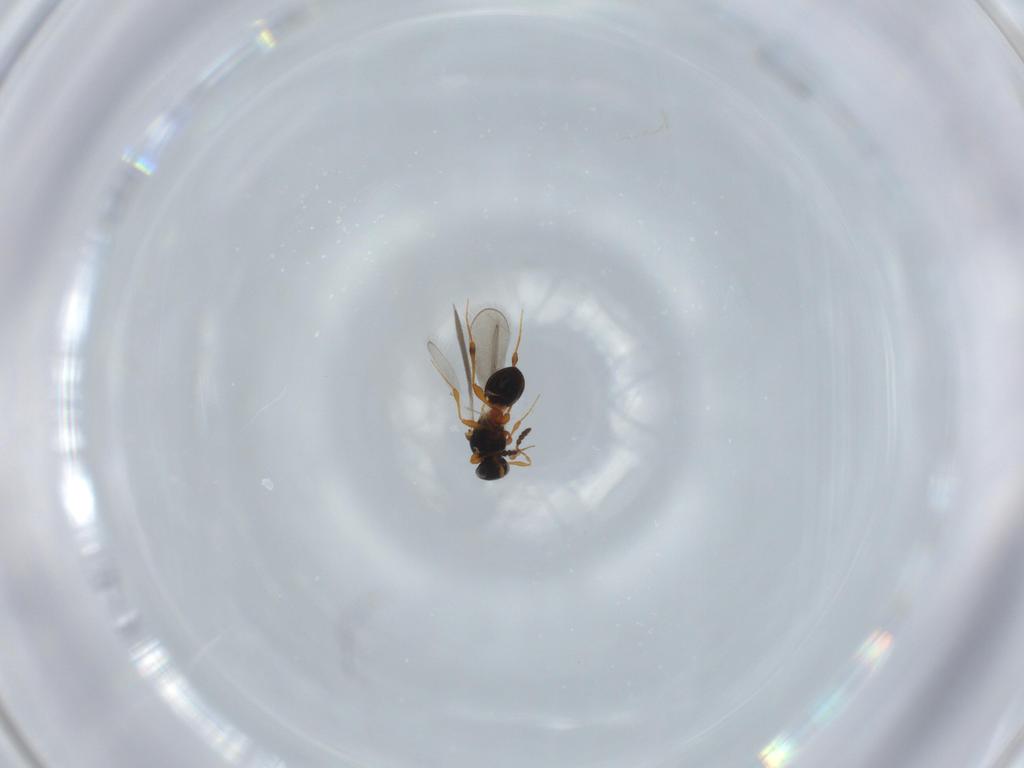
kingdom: Animalia
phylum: Arthropoda
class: Insecta
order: Hymenoptera
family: Platygastridae
